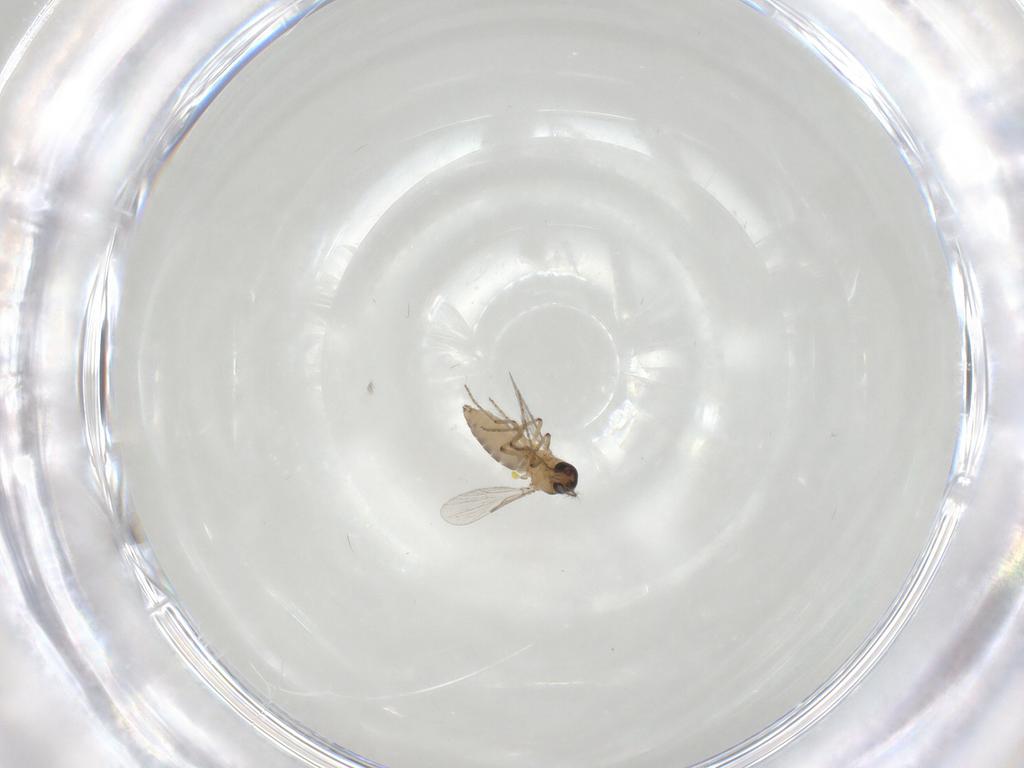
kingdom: Animalia
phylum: Arthropoda
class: Insecta
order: Diptera
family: Ceratopogonidae
